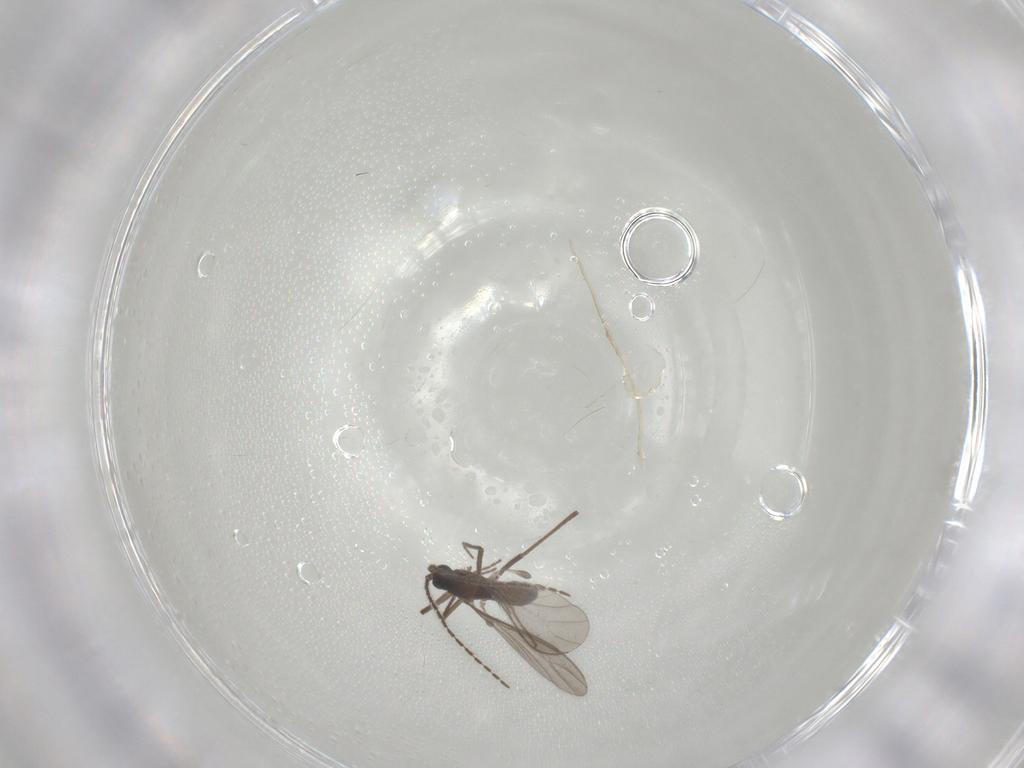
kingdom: Animalia
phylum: Arthropoda
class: Insecta
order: Diptera
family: Sciaridae
